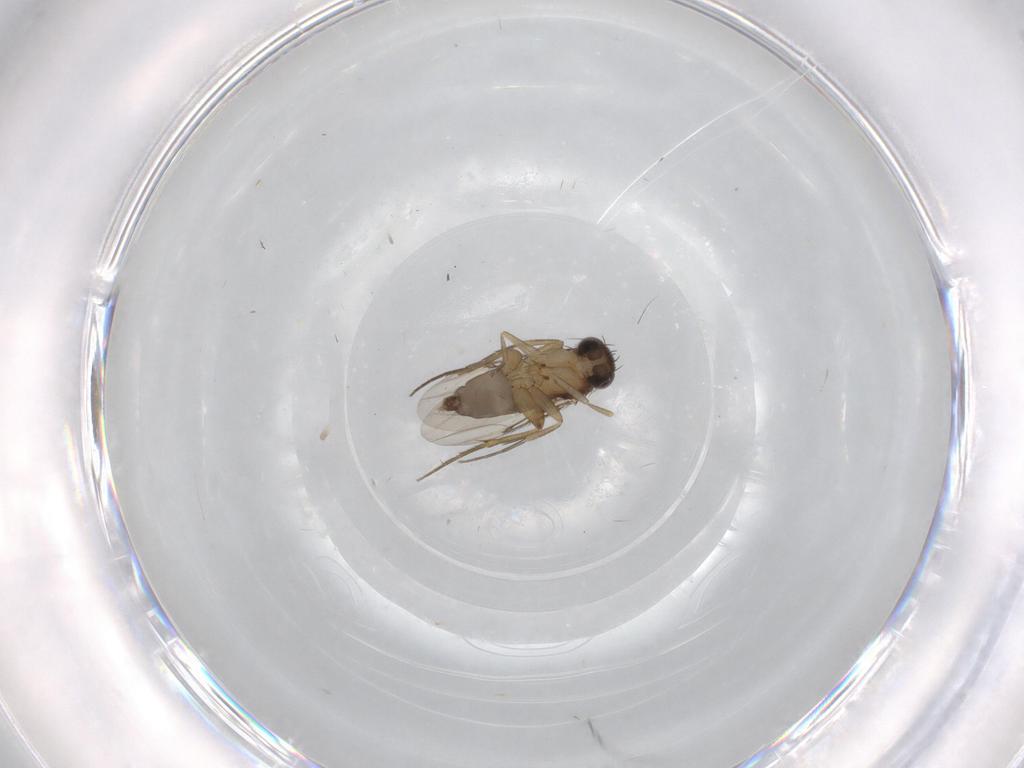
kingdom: Animalia
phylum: Arthropoda
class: Insecta
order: Diptera
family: Phoridae
